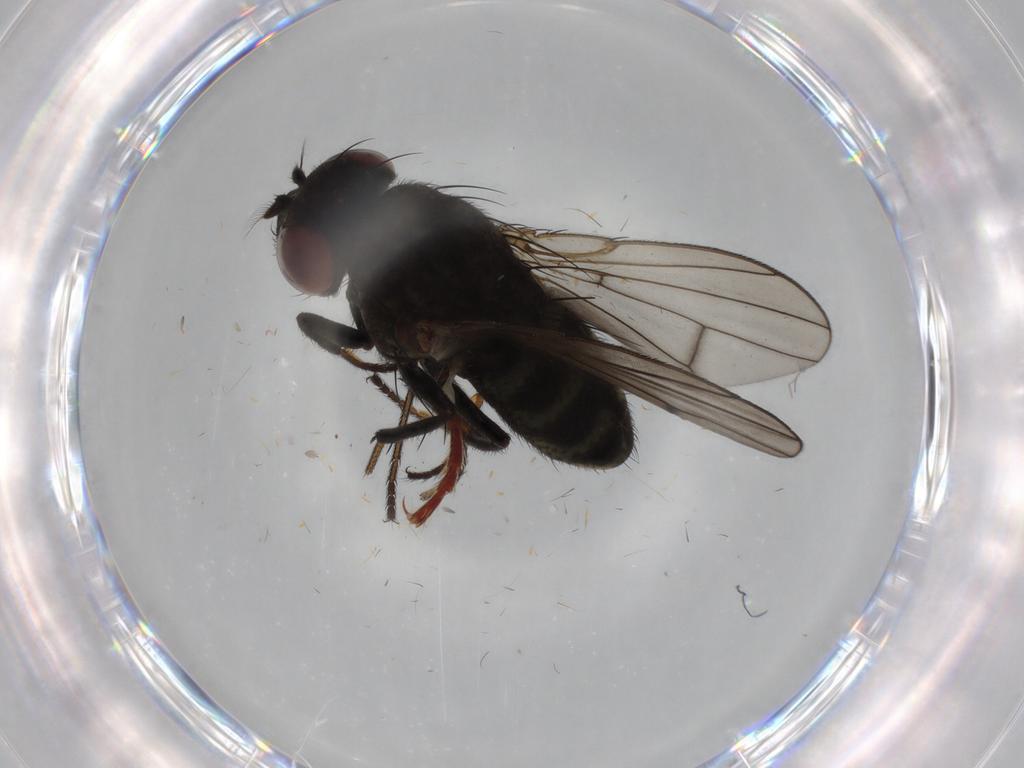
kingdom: Animalia
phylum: Arthropoda
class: Insecta
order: Diptera
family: Ephydridae
